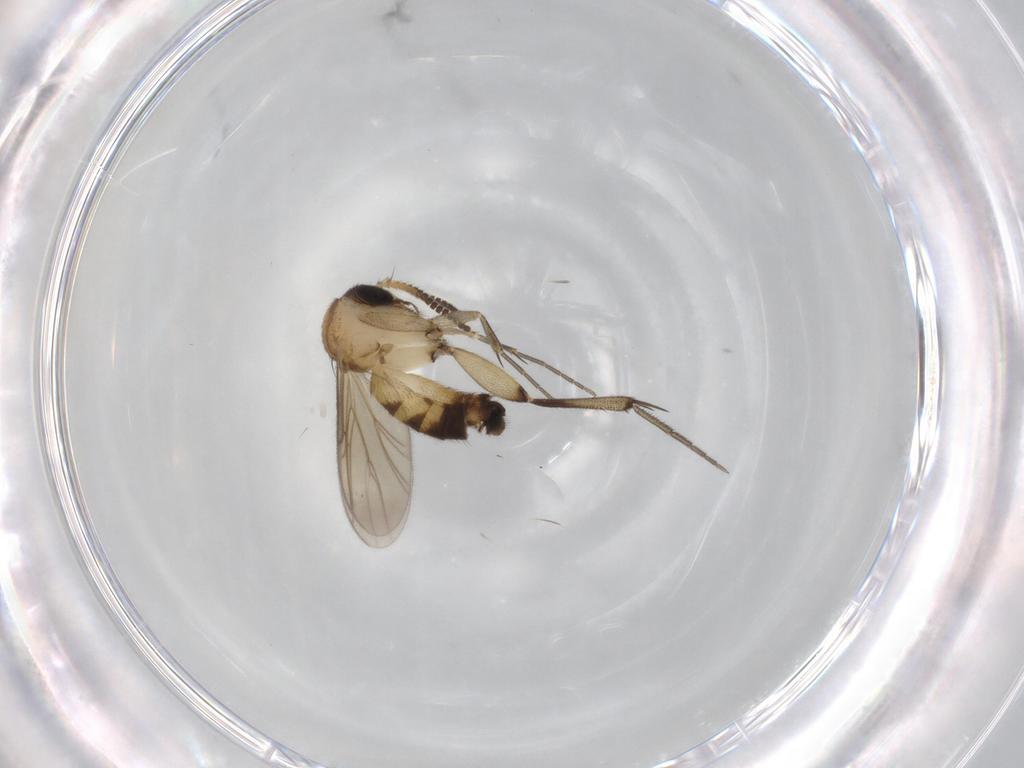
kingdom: Animalia
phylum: Arthropoda
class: Insecta
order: Diptera
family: Mycetophilidae
